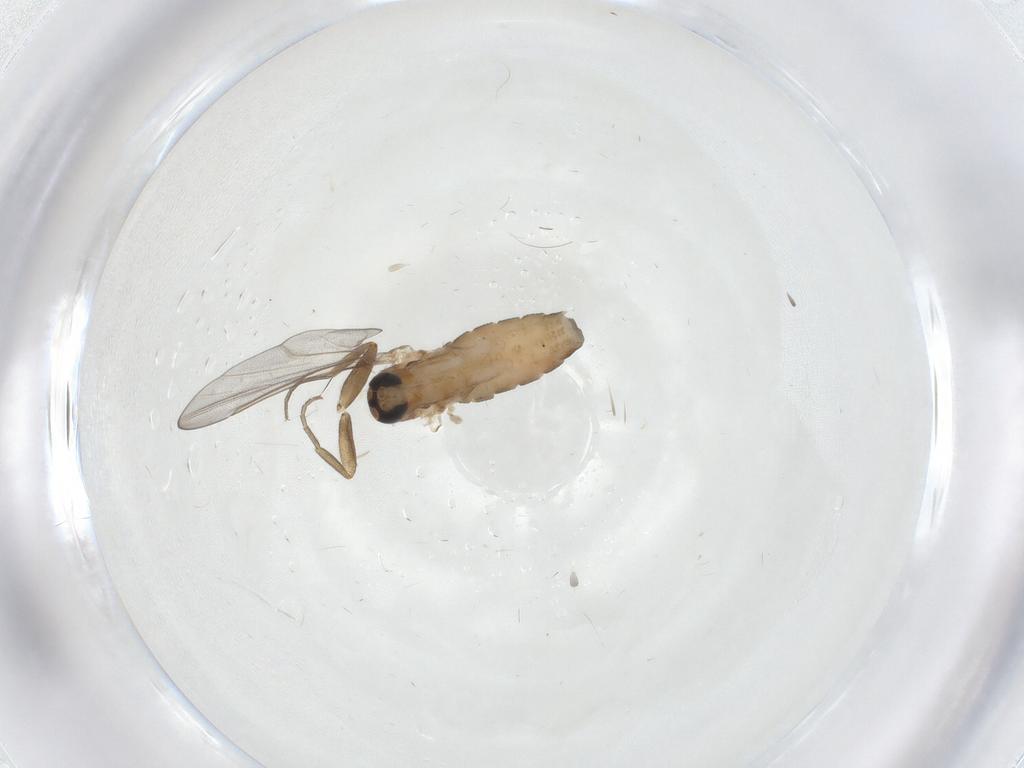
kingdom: Animalia
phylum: Arthropoda
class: Insecta
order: Diptera
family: Cecidomyiidae
